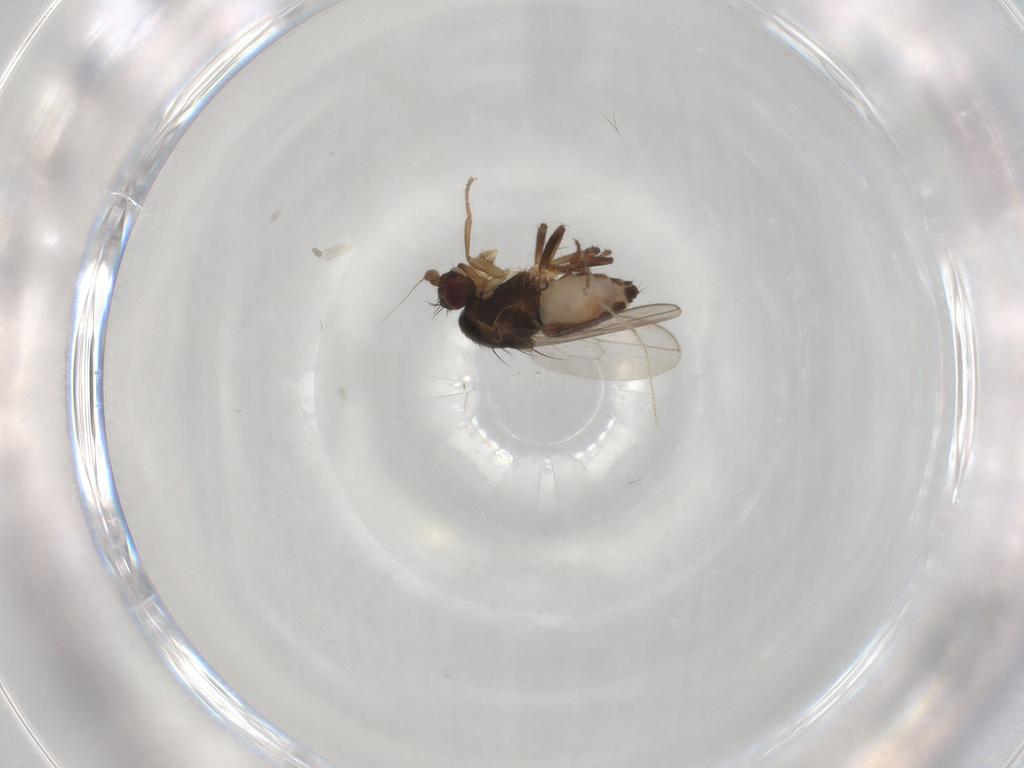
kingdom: Animalia
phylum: Arthropoda
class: Insecta
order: Diptera
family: Sphaeroceridae
